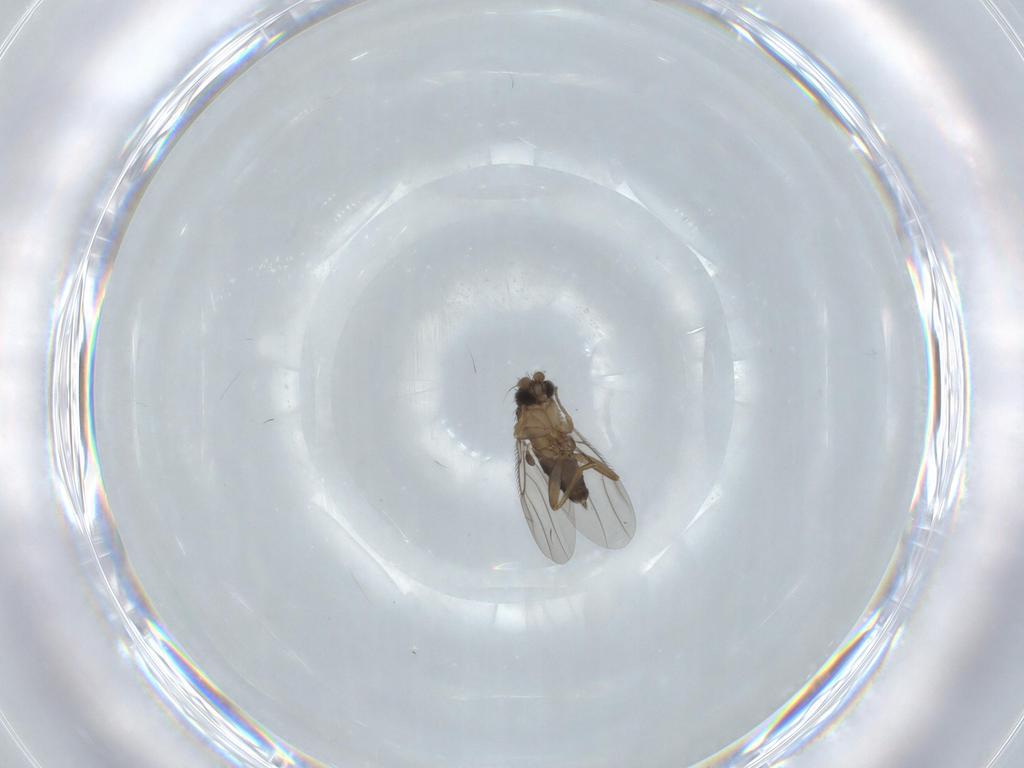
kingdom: Animalia
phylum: Arthropoda
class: Insecta
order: Diptera
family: Phoridae
